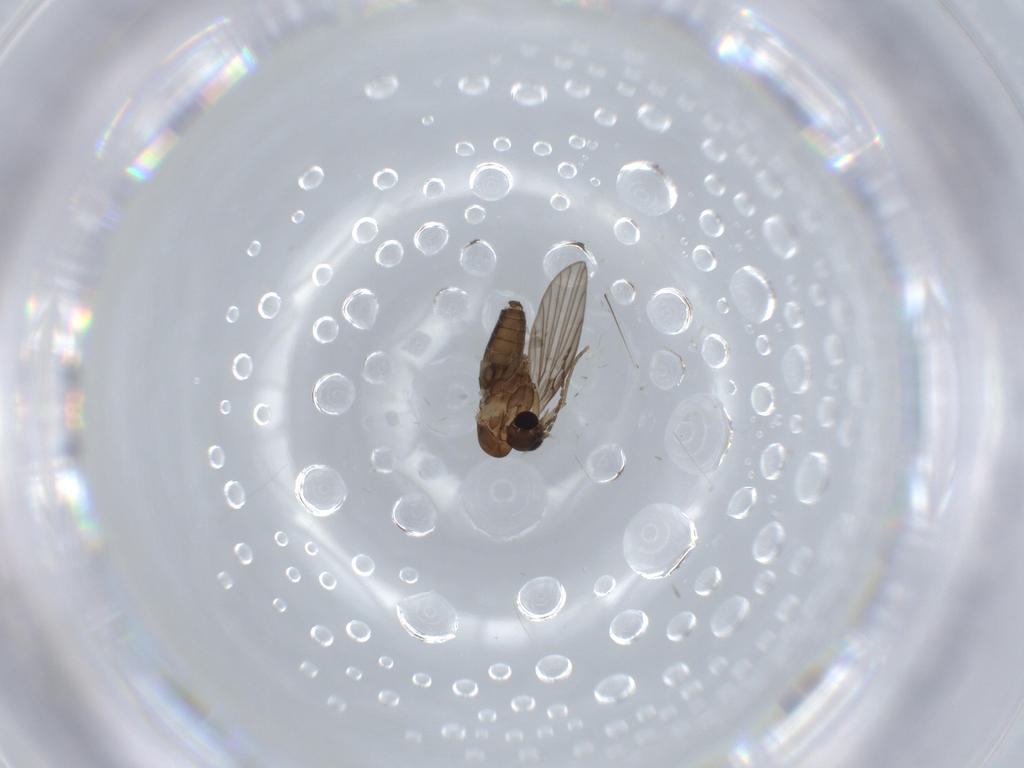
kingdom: Animalia
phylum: Arthropoda
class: Insecta
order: Diptera
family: Psychodidae
